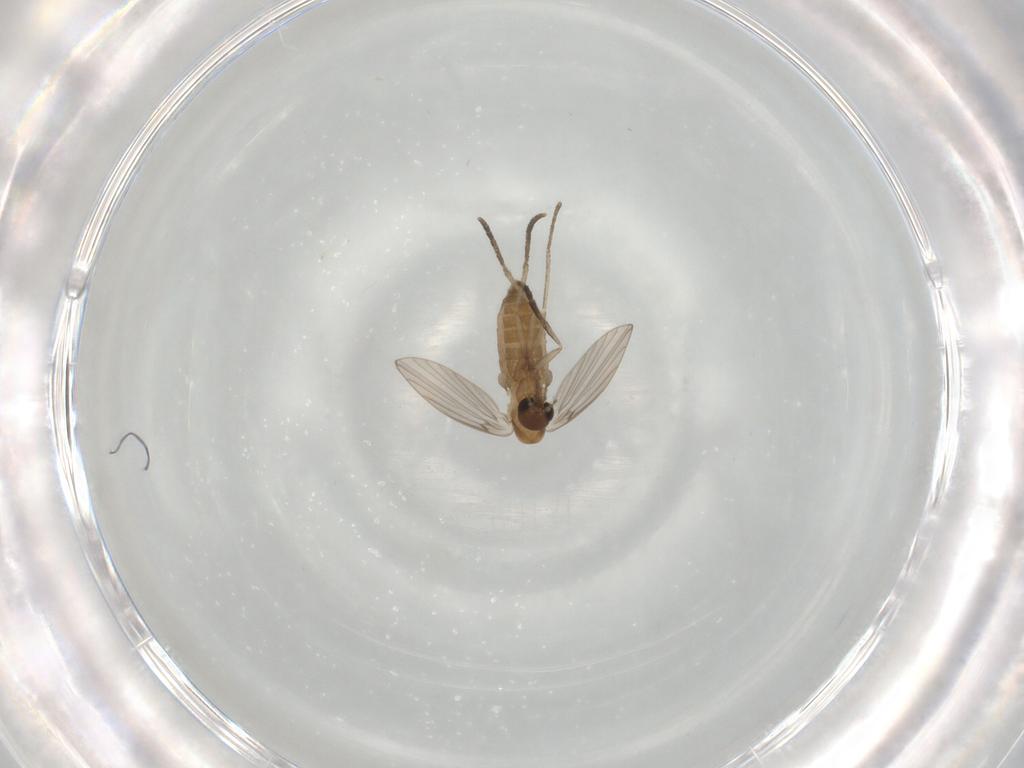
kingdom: Animalia
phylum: Arthropoda
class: Insecta
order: Diptera
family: Psychodidae
